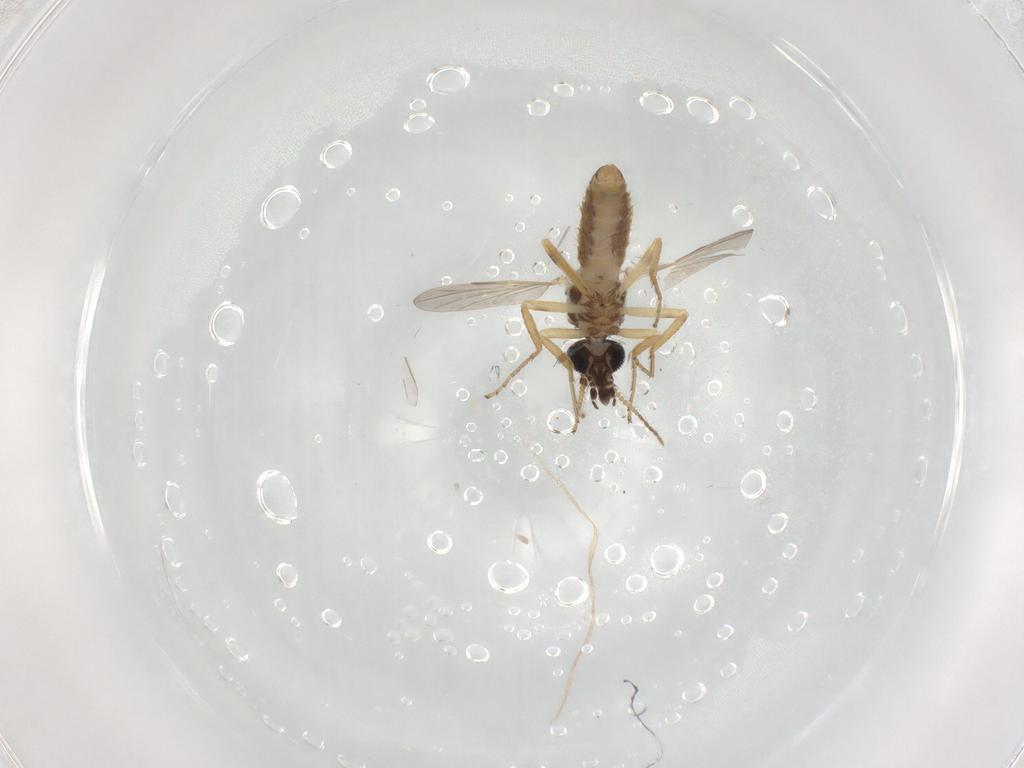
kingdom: Animalia
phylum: Arthropoda
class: Insecta
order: Diptera
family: Ceratopogonidae
